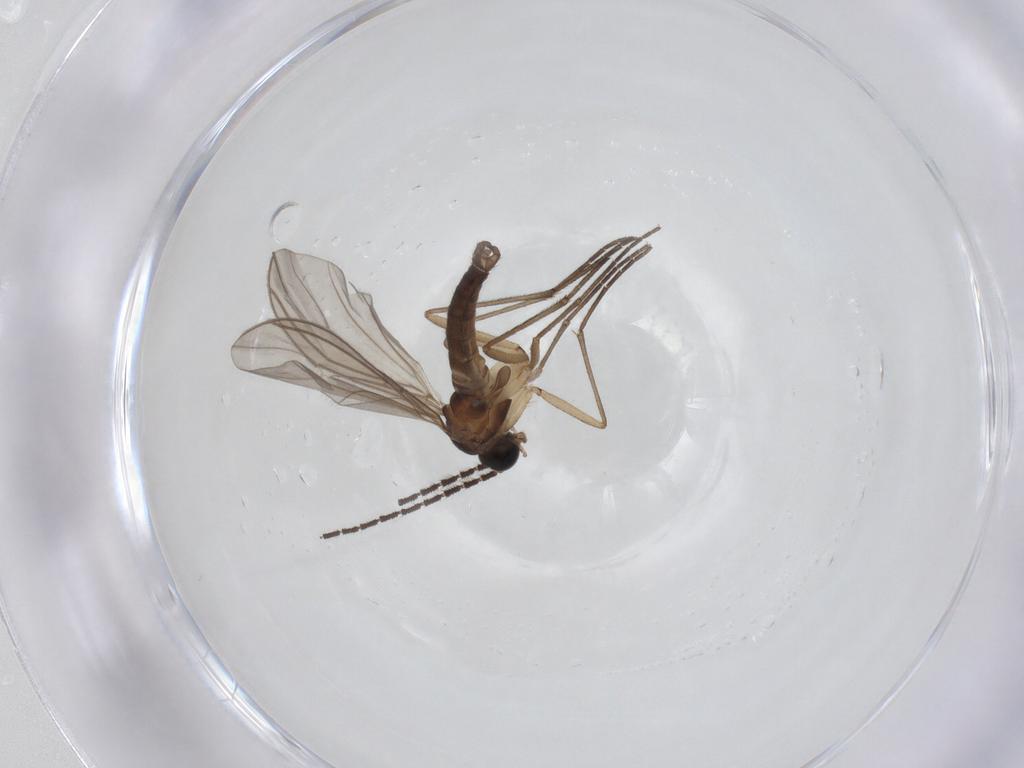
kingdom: Animalia
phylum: Arthropoda
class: Insecta
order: Diptera
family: Sciaridae
